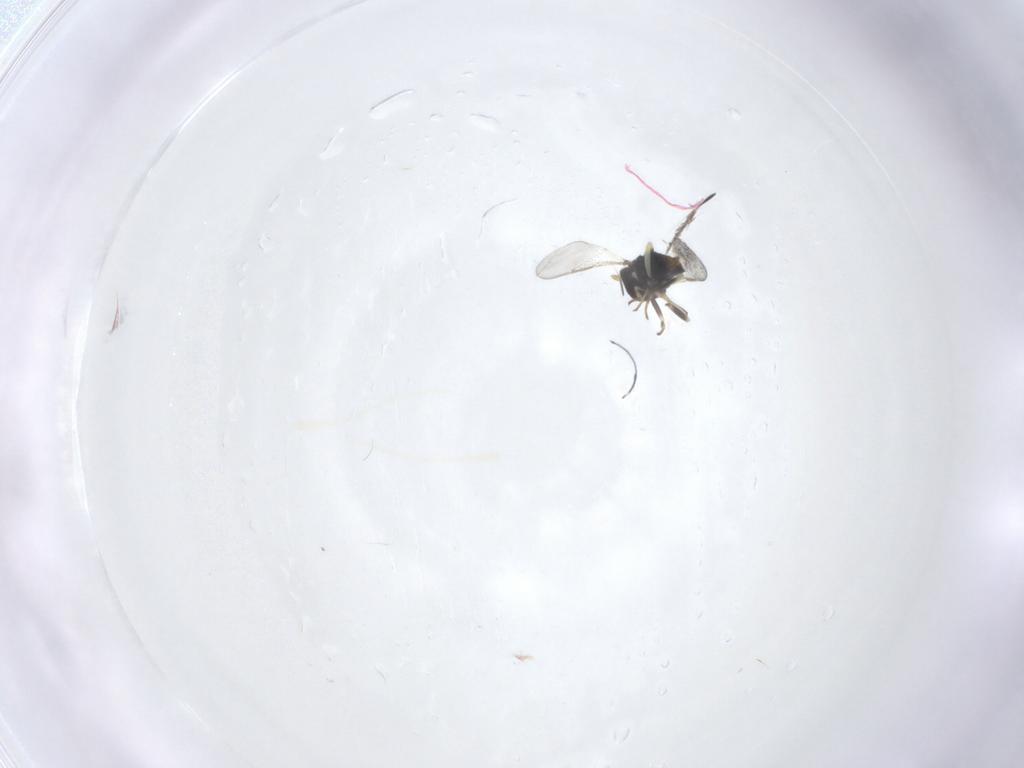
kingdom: Animalia
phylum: Arthropoda
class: Insecta
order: Hymenoptera
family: Aphelinidae
